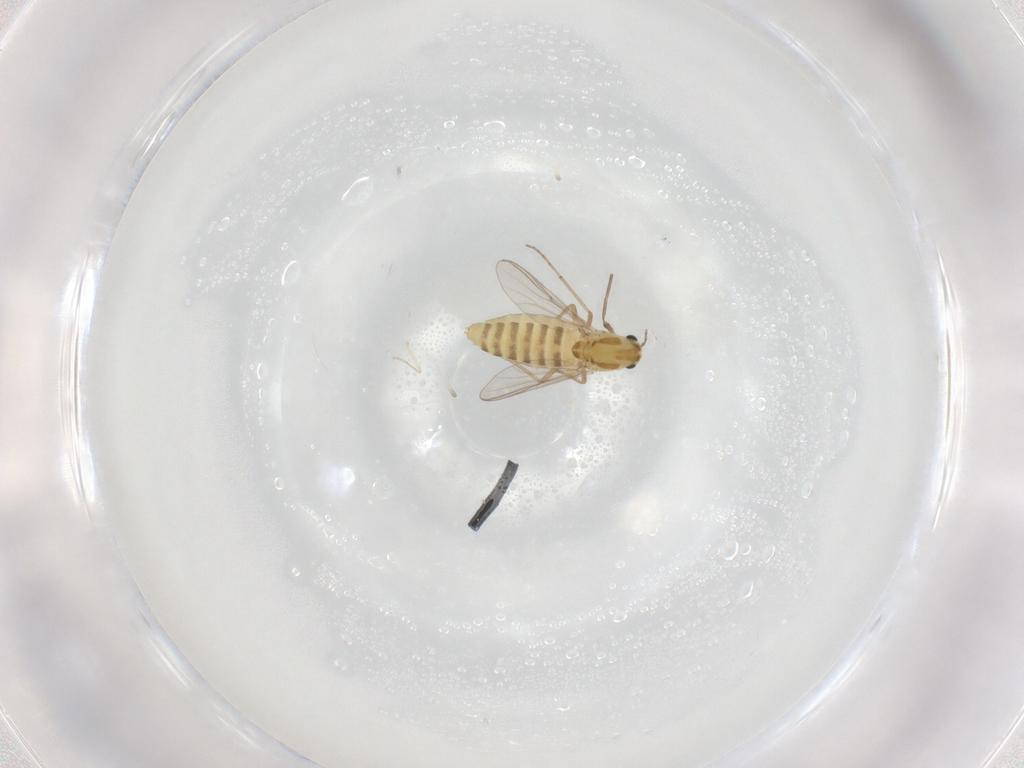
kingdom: Animalia
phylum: Arthropoda
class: Insecta
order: Diptera
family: Cecidomyiidae
